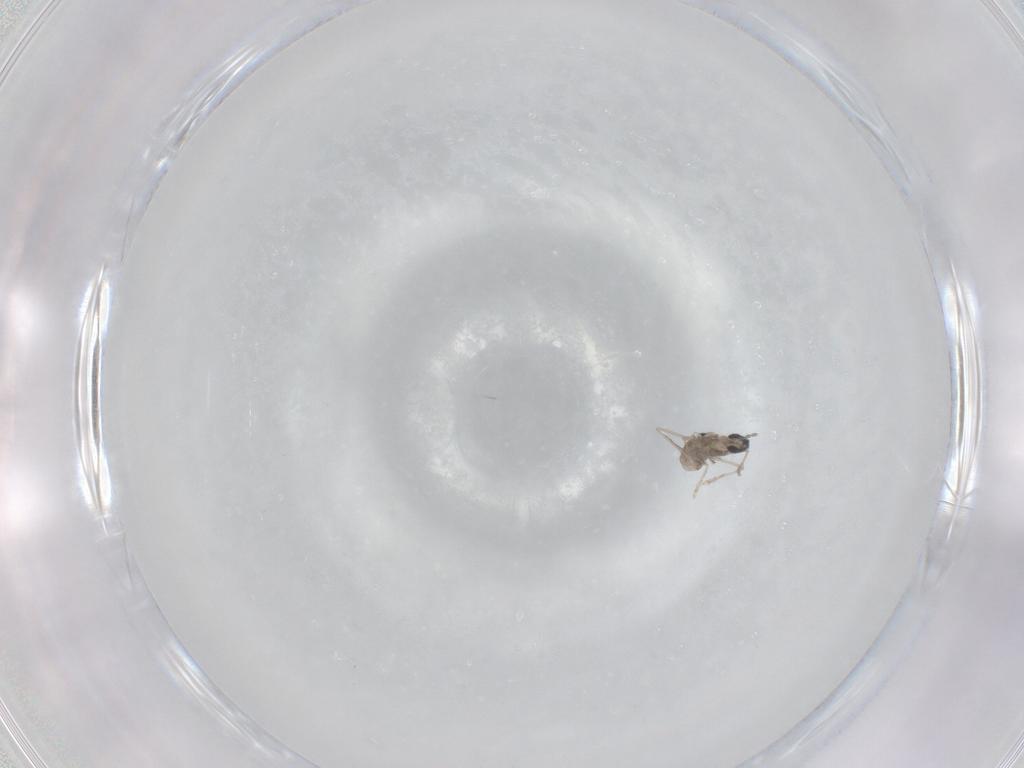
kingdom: Animalia
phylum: Arthropoda
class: Insecta
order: Diptera
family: Cecidomyiidae
